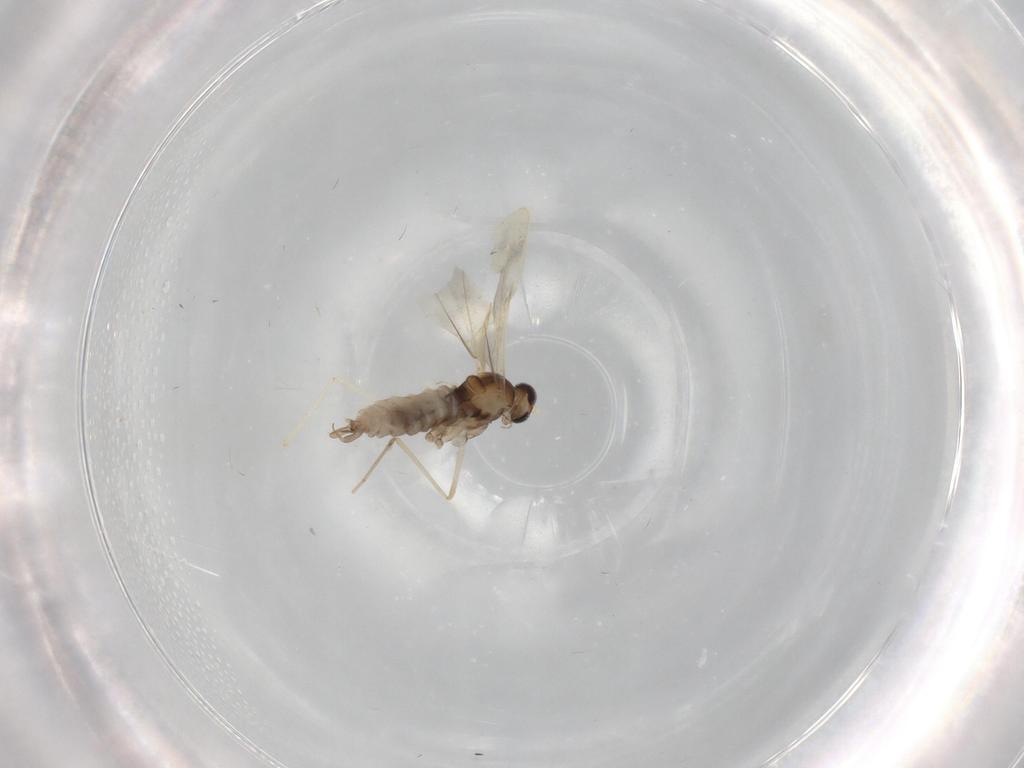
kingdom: Animalia
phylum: Arthropoda
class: Insecta
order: Diptera
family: Cecidomyiidae
